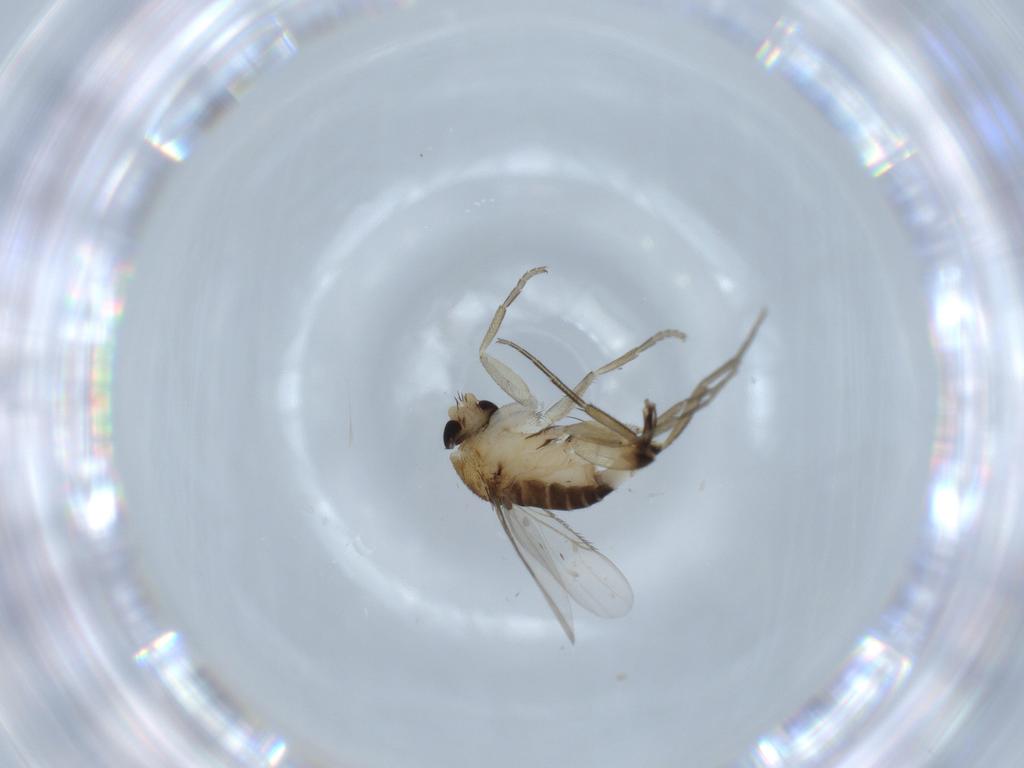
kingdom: Animalia
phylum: Arthropoda
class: Insecta
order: Diptera
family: Phoridae
